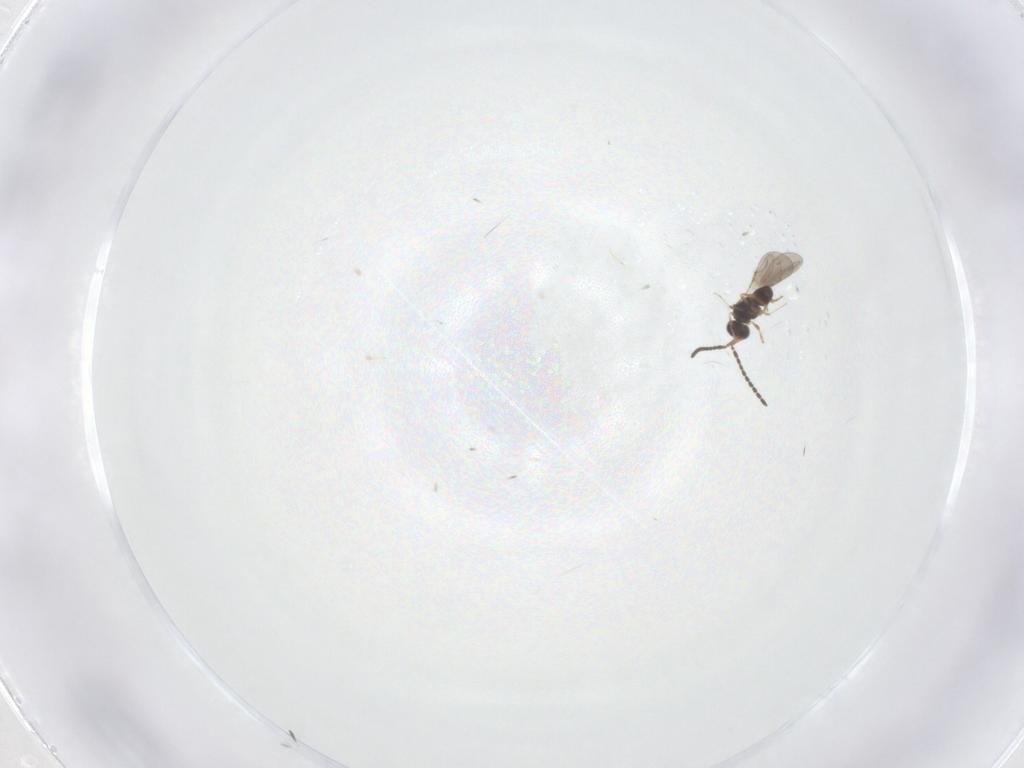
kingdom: Animalia
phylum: Arthropoda
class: Insecta
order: Hymenoptera
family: Ceraphronidae
